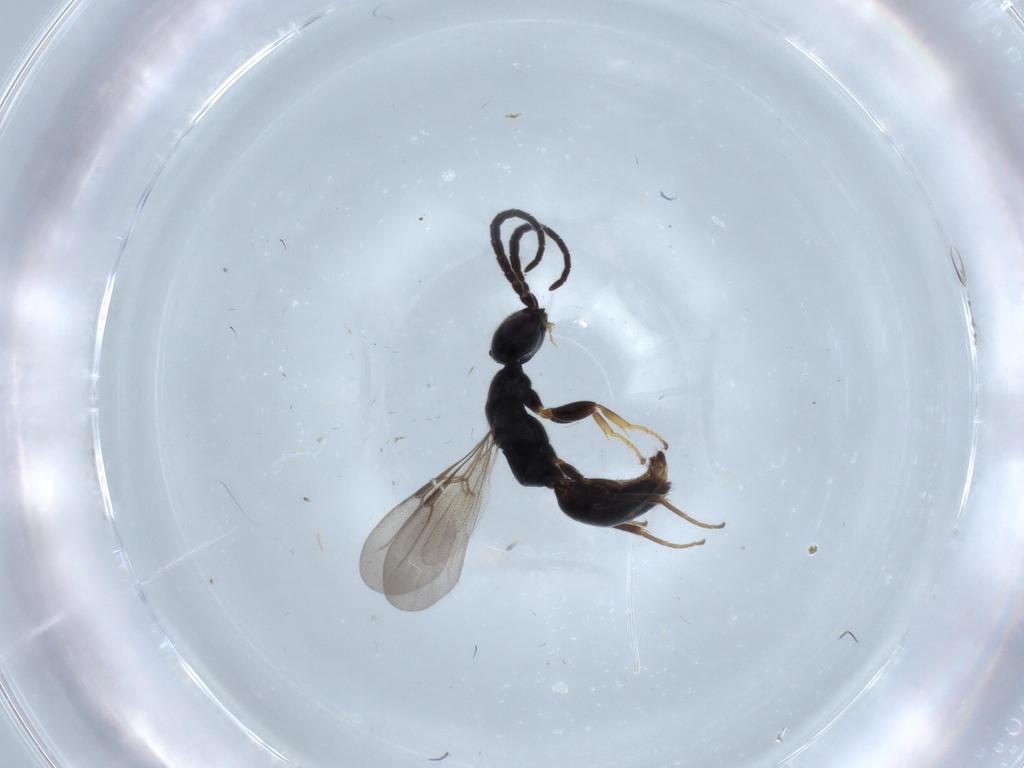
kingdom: Animalia
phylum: Arthropoda
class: Insecta
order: Hymenoptera
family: Bethylidae
